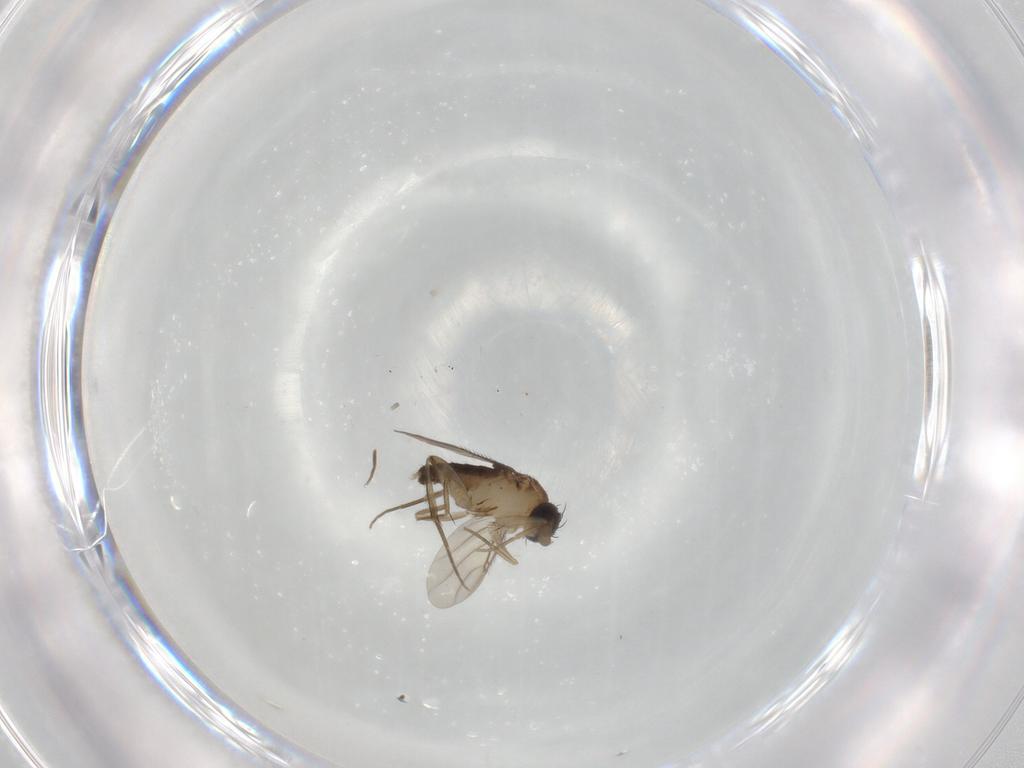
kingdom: Animalia
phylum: Arthropoda
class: Insecta
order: Diptera
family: Phoridae
